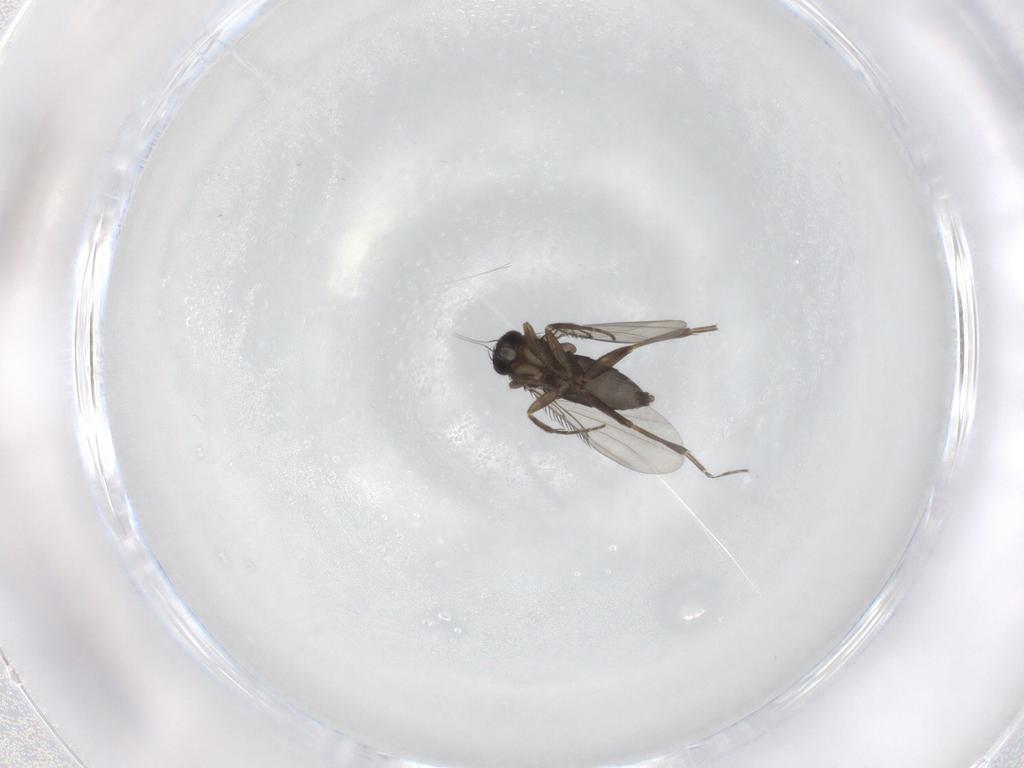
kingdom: Animalia
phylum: Arthropoda
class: Insecta
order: Diptera
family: Phoridae
